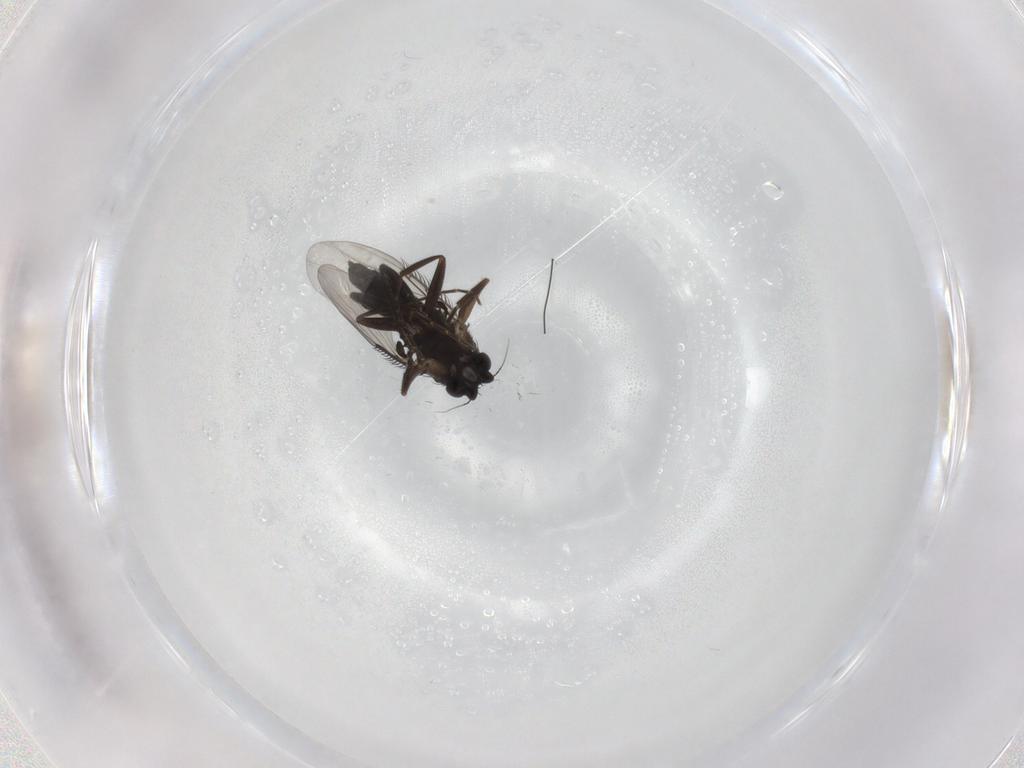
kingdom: Animalia
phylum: Arthropoda
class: Insecta
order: Diptera
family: Phoridae
